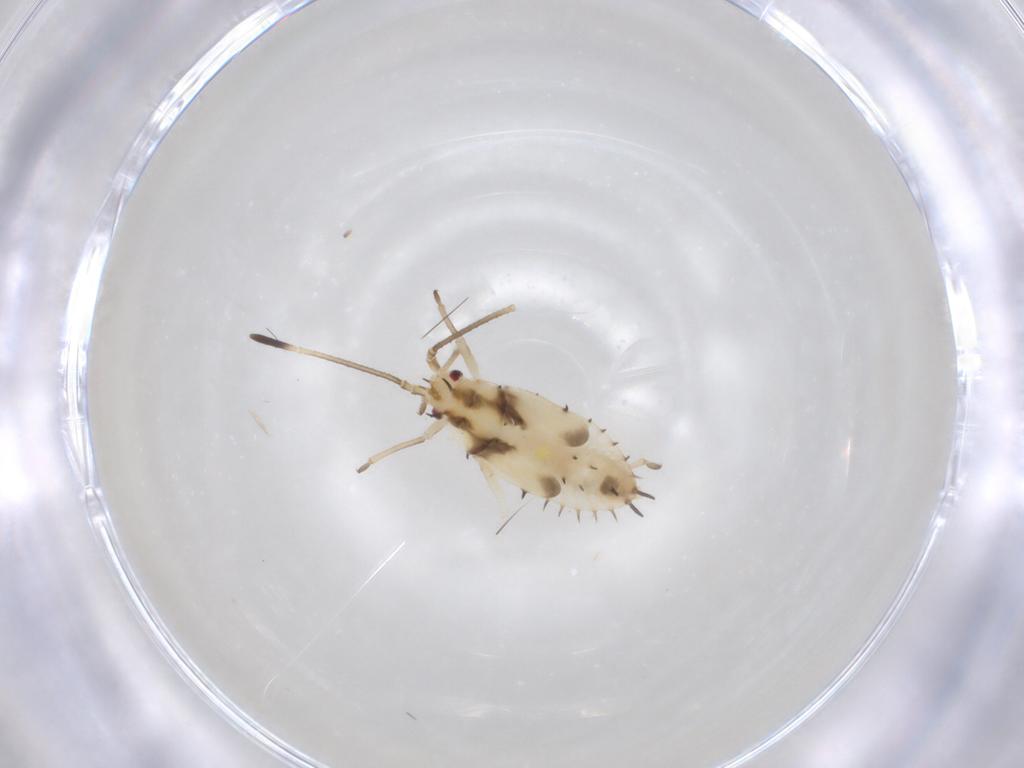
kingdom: Animalia
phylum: Arthropoda
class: Insecta
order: Hemiptera
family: Tingidae
